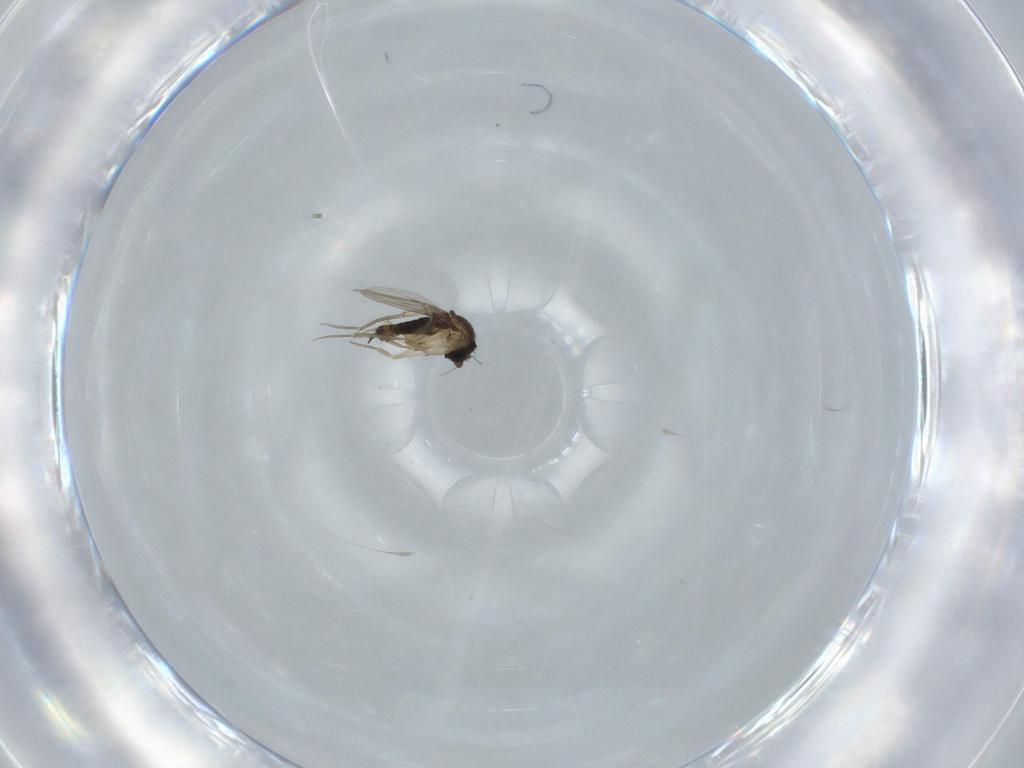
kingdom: Animalia
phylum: Arthropoda
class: Insecta
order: Diptera
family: Phoridae
